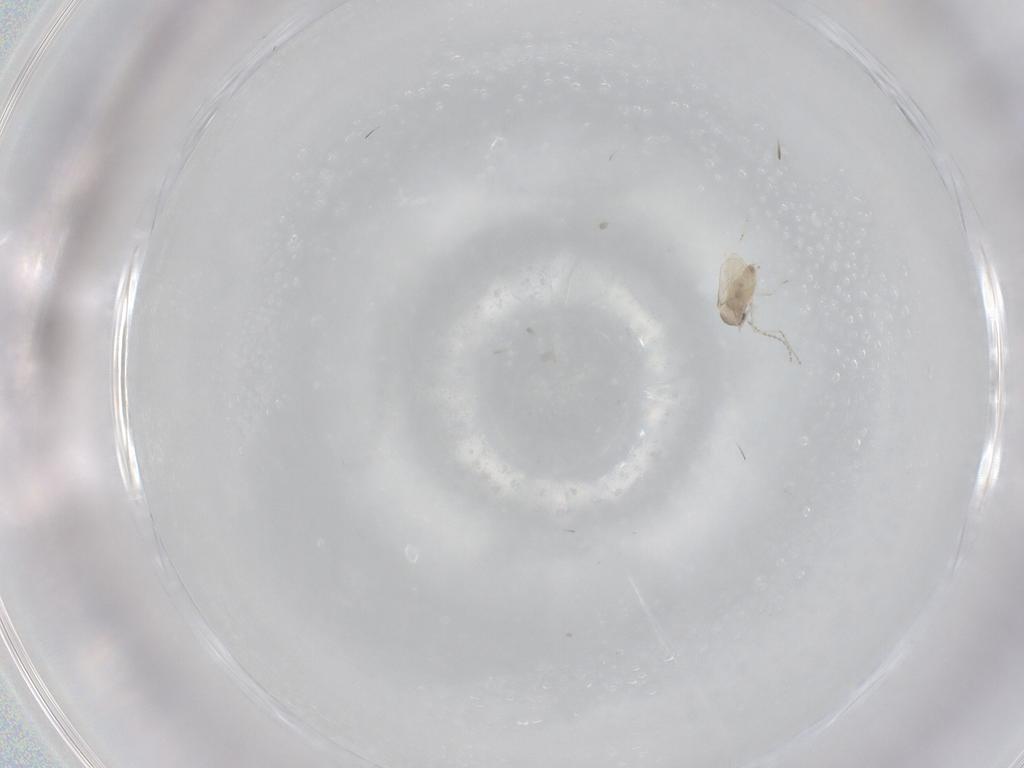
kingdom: Animalia
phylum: Arthropoda
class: Insecta
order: Diptera
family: Cecidomyiidae
